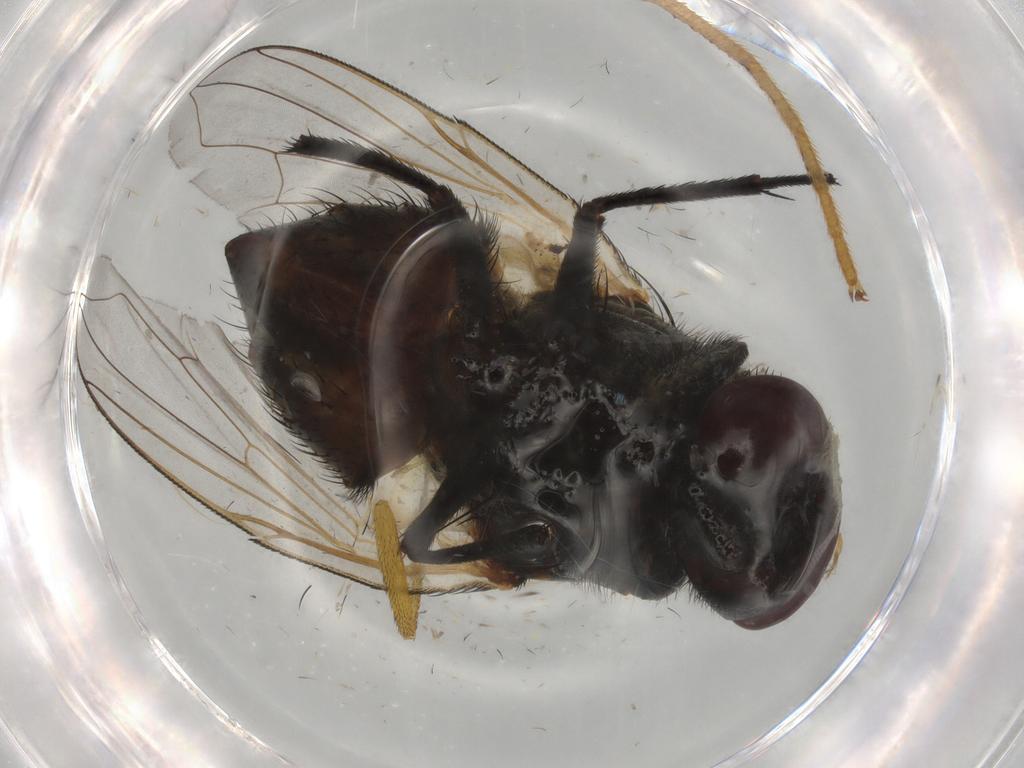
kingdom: Animalia
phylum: Arthropoda
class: Insecta
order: Diptera
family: Muscidae
